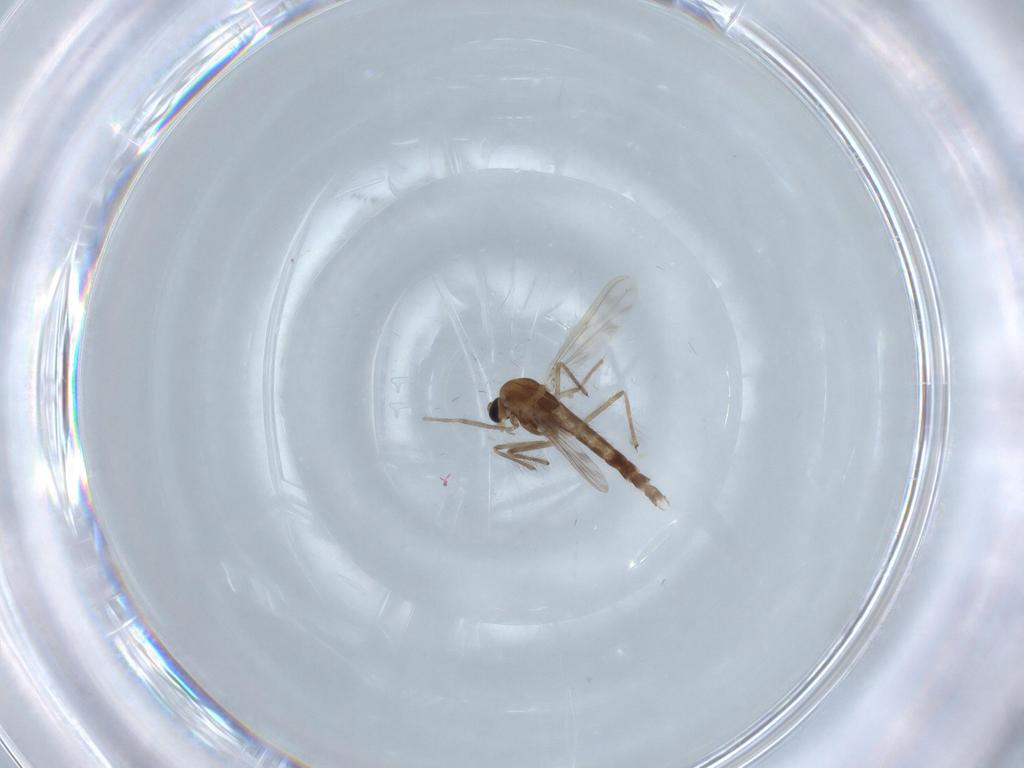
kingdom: Animalia
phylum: Arthropoda
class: Insecta
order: Diptera
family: Chironomidae
